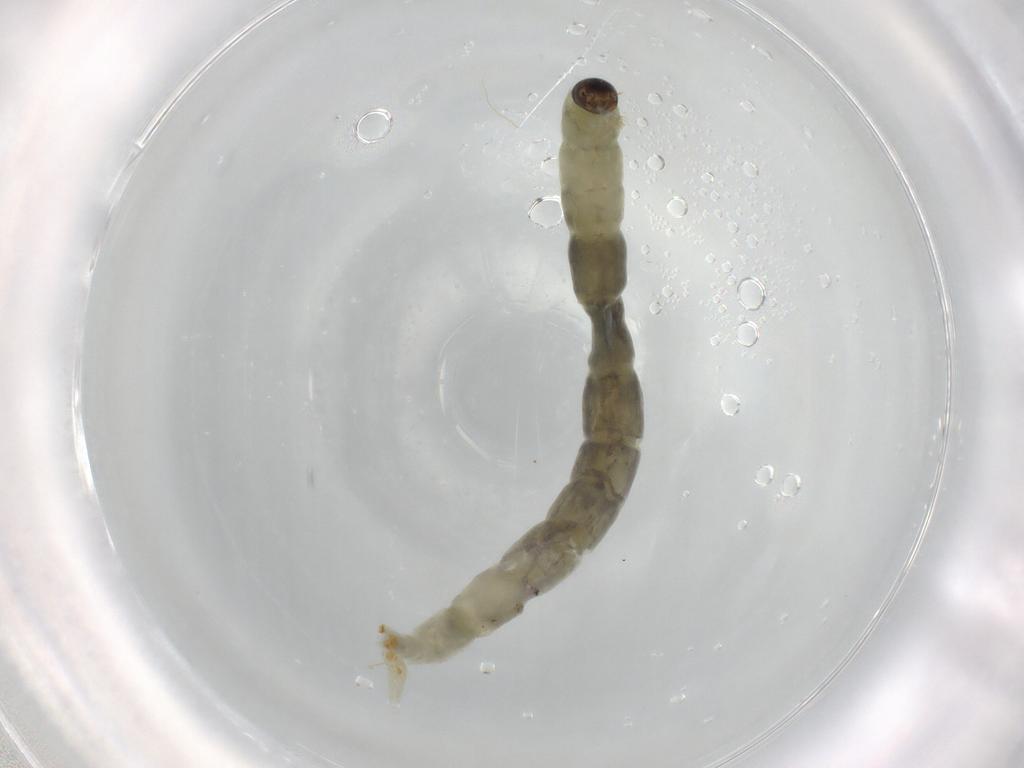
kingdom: Animalia
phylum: Arthropoda
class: Insecta
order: Diptera
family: Chironomidae
